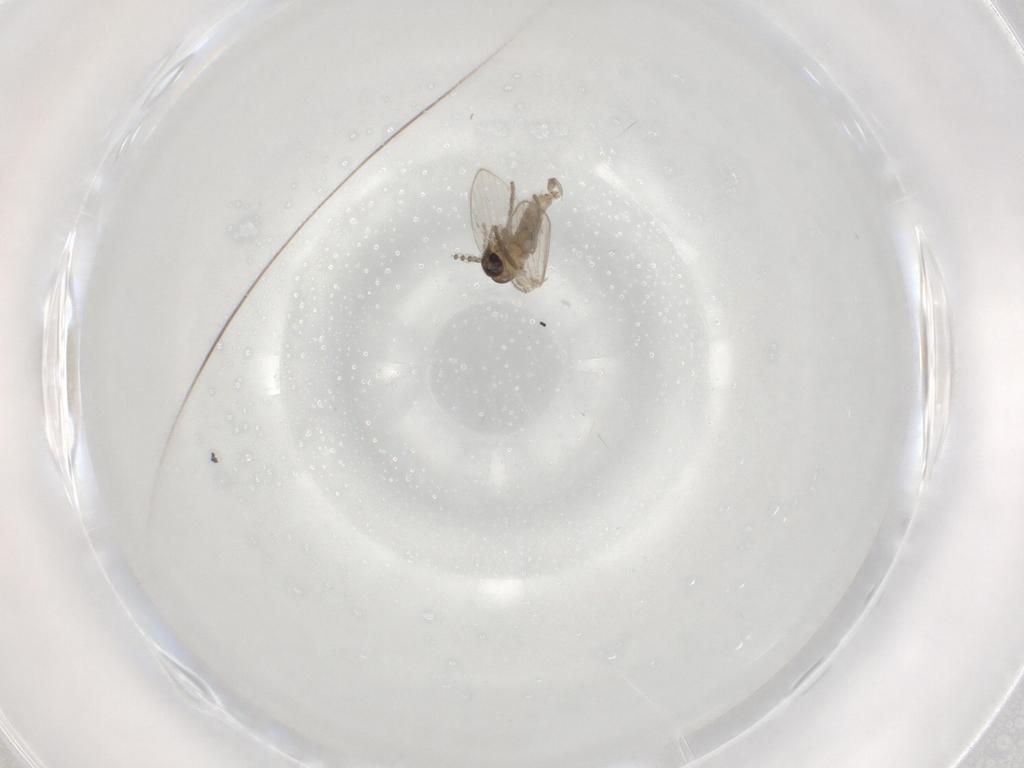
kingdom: Animalia
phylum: Arthropoda
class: Insecta
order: Diptera
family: Psychodidae
